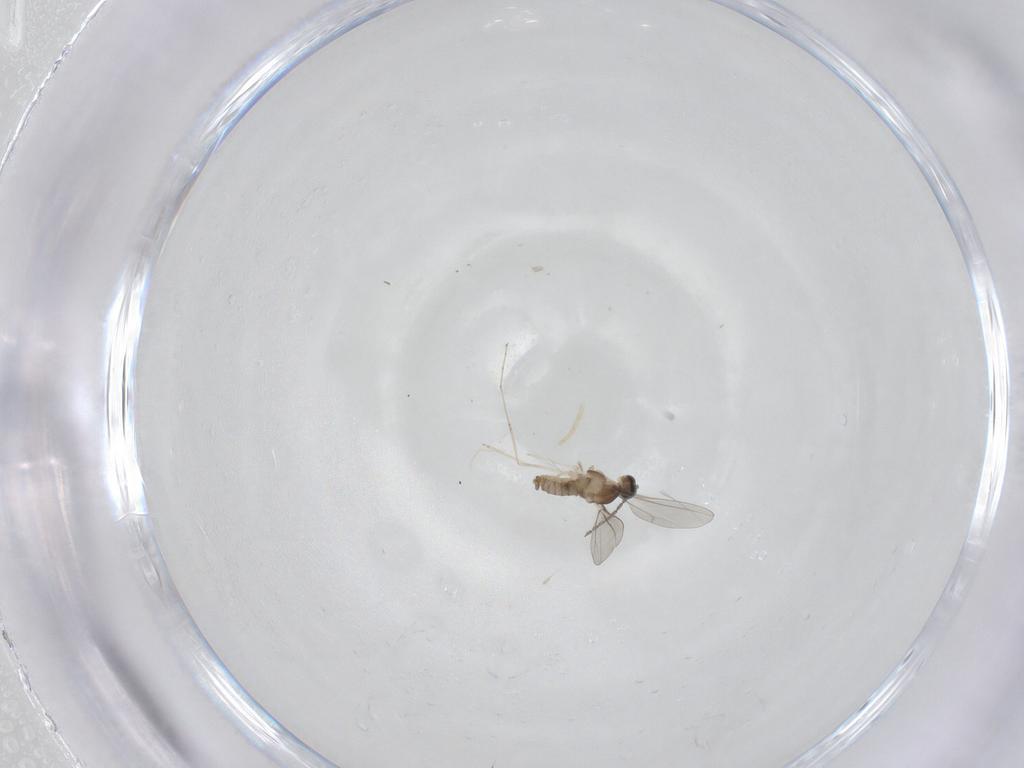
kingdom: Animalia
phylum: Arthropoda
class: Insecta
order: Diptera
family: Cecidomyiidae
